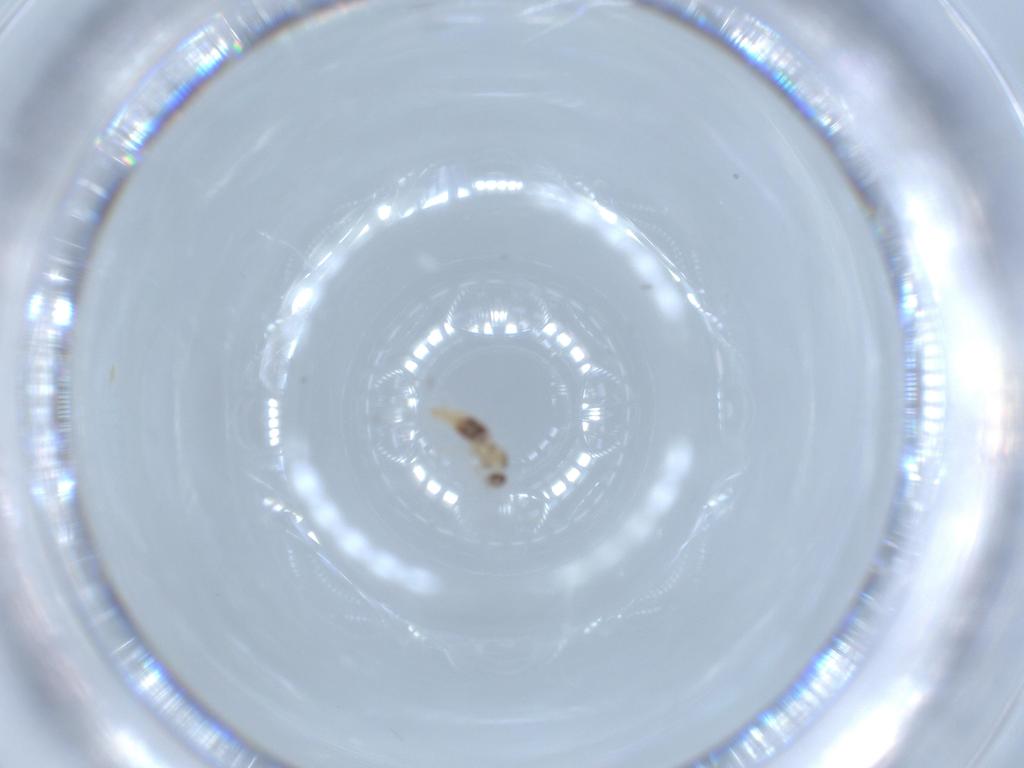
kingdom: Animalia
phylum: Arthropoda
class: Insecta
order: Diptera
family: Cecidomyiidae
